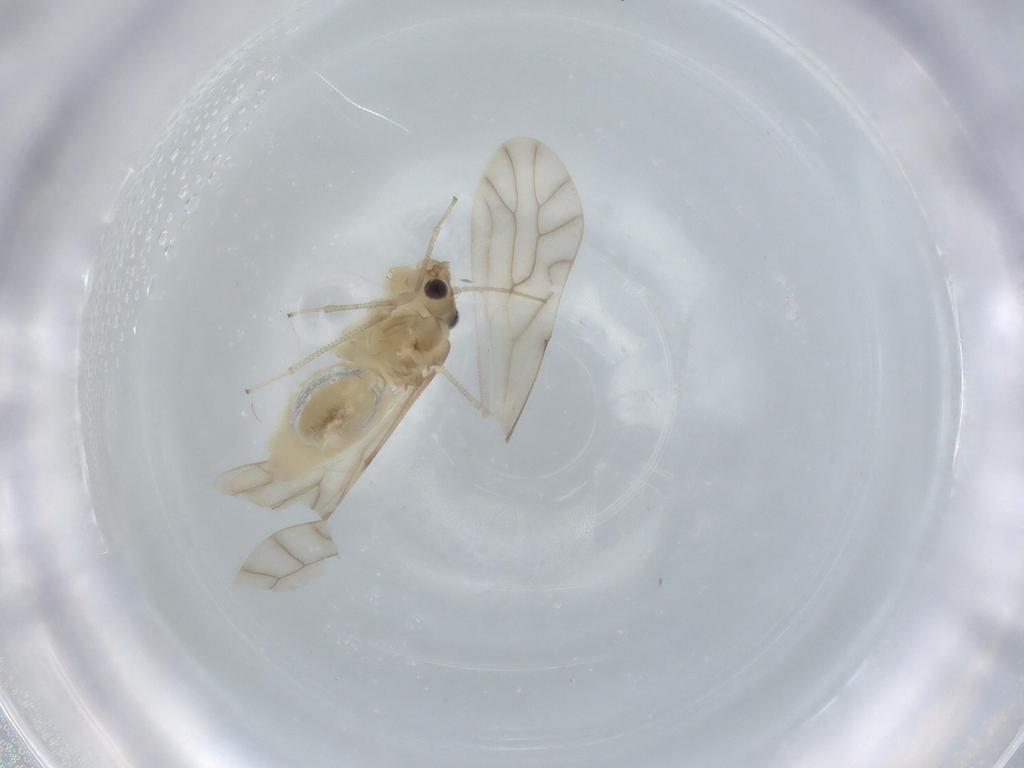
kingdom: Animalia
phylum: Arthropoda
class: Insecta
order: Psocodea
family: Caeciliusidae
